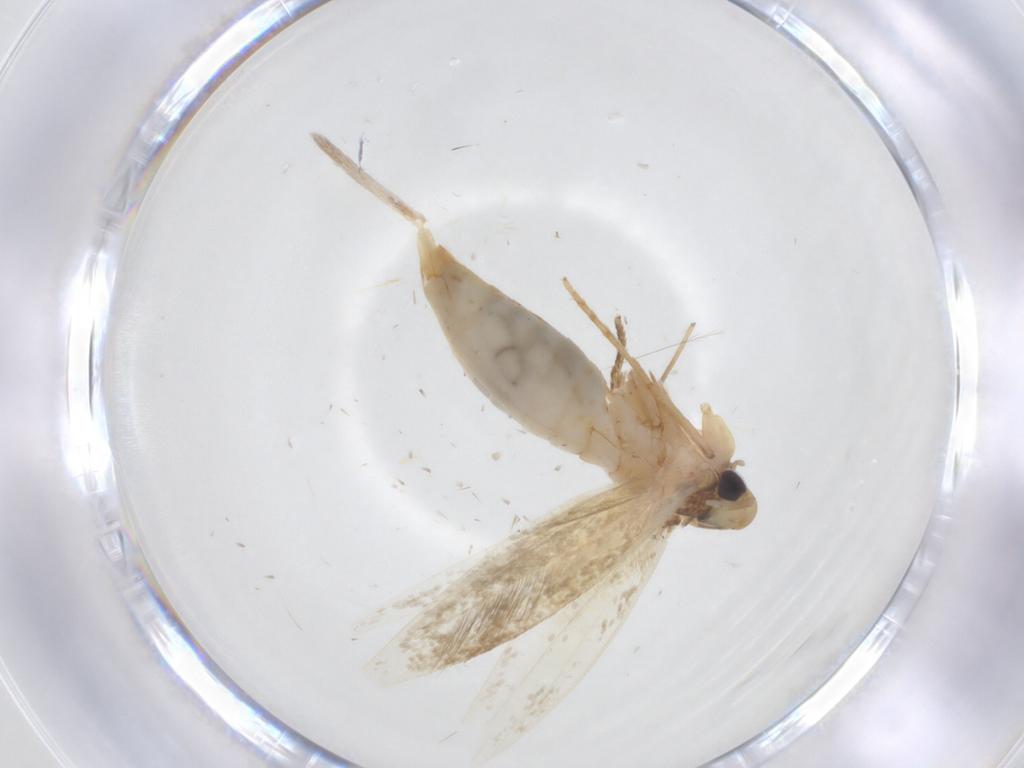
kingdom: Animalia
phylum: Arthropoda
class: Insecta
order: Lepidoptera
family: Tineidae
